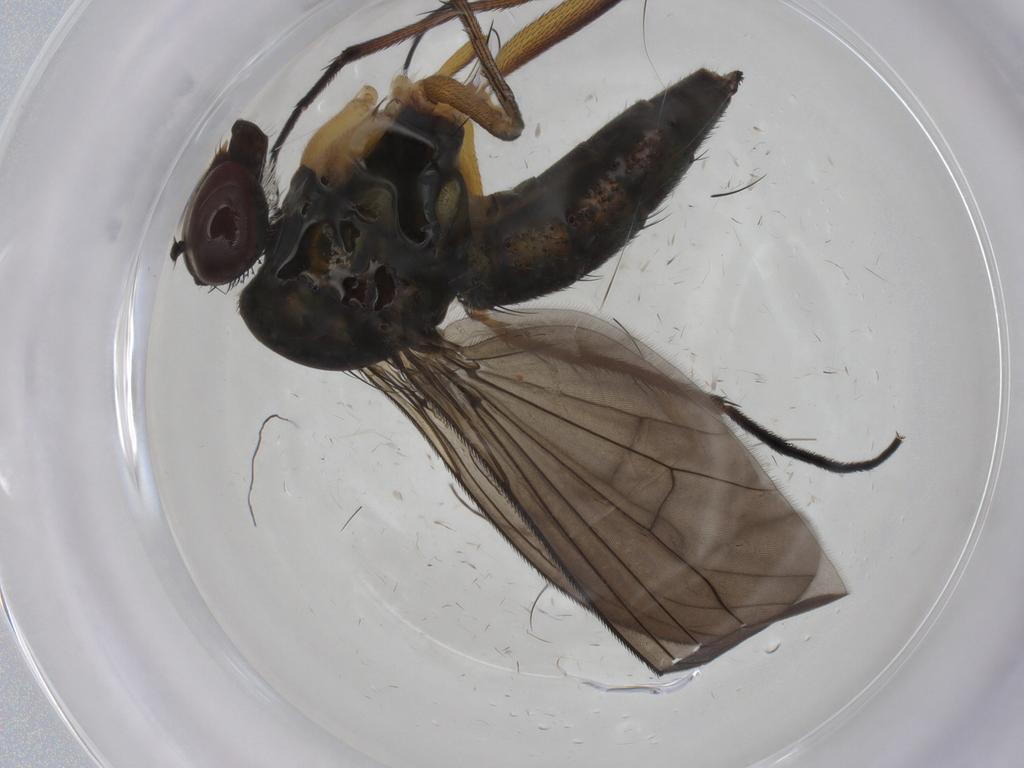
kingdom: Animalia
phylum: Arthropoda
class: Insecta
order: Diptera
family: Dolichopodidae
